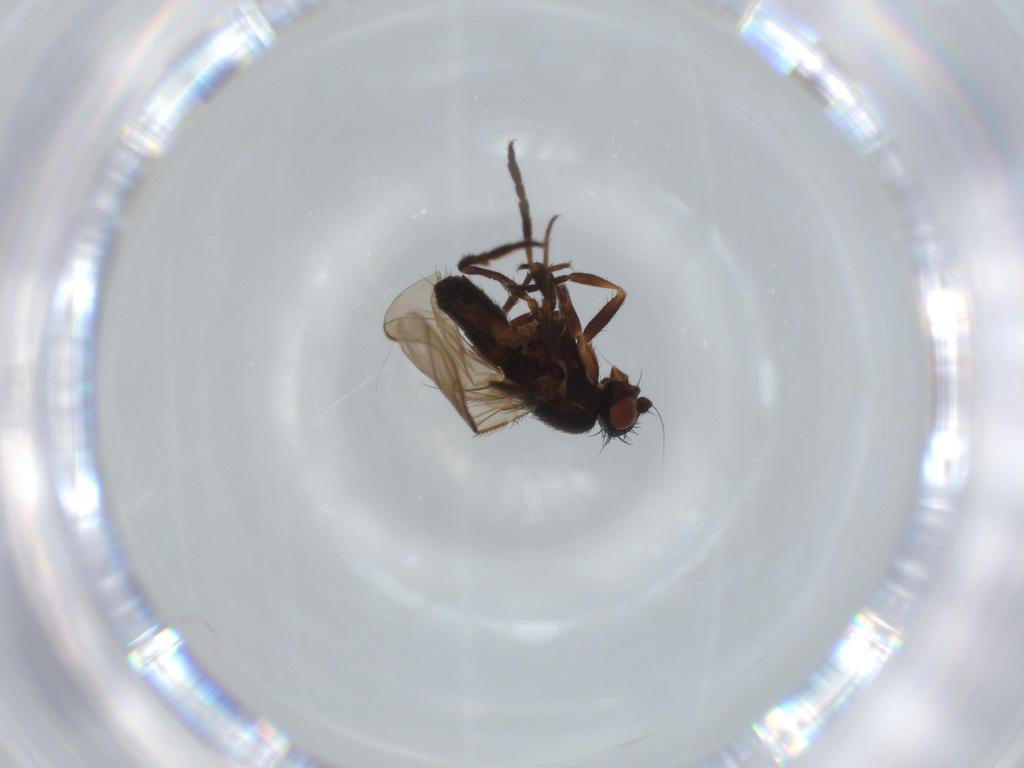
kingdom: Animalia
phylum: Arthropoda
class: Insecta
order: Diptera
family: Sphaeroceridae
